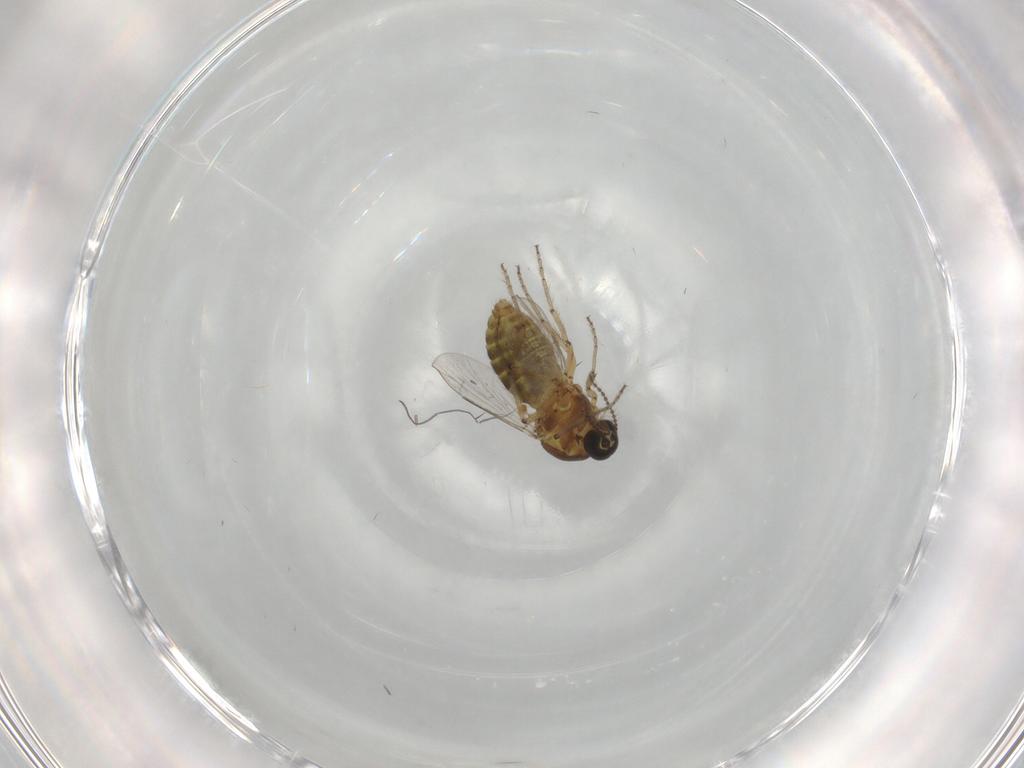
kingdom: Animalia
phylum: Arthropoda
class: Insecta
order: Diptera
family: Ceratopogonidae
